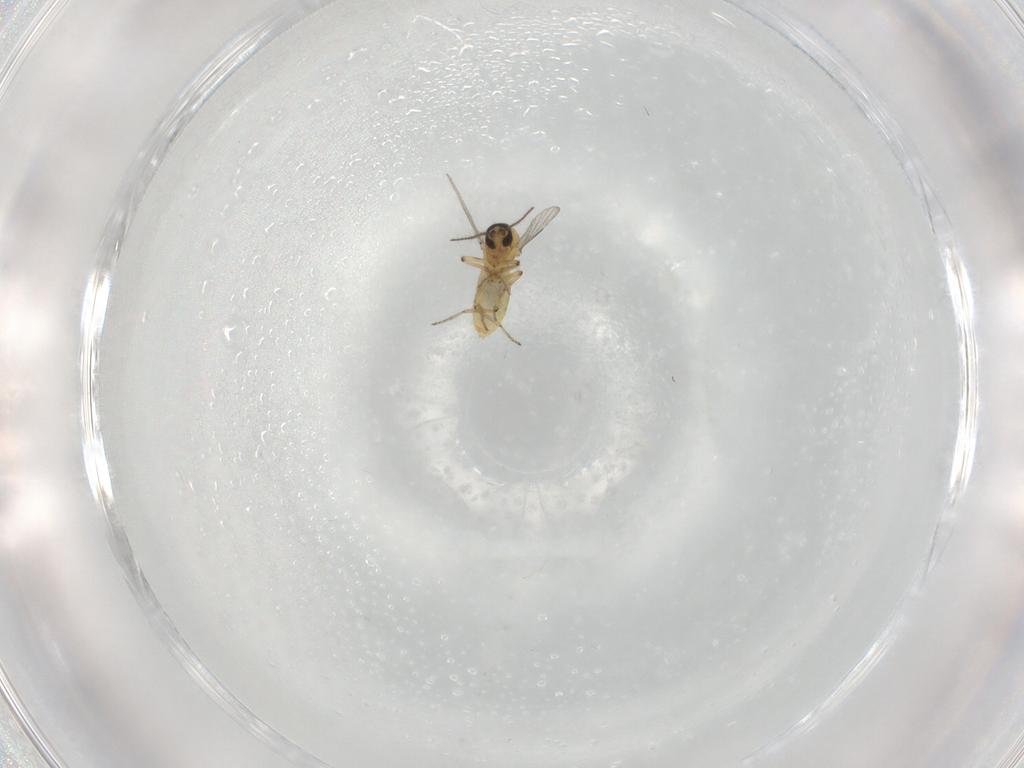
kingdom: Animalia
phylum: Arthropoda
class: Insecta
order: Diptera
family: Ceratopogonidae
